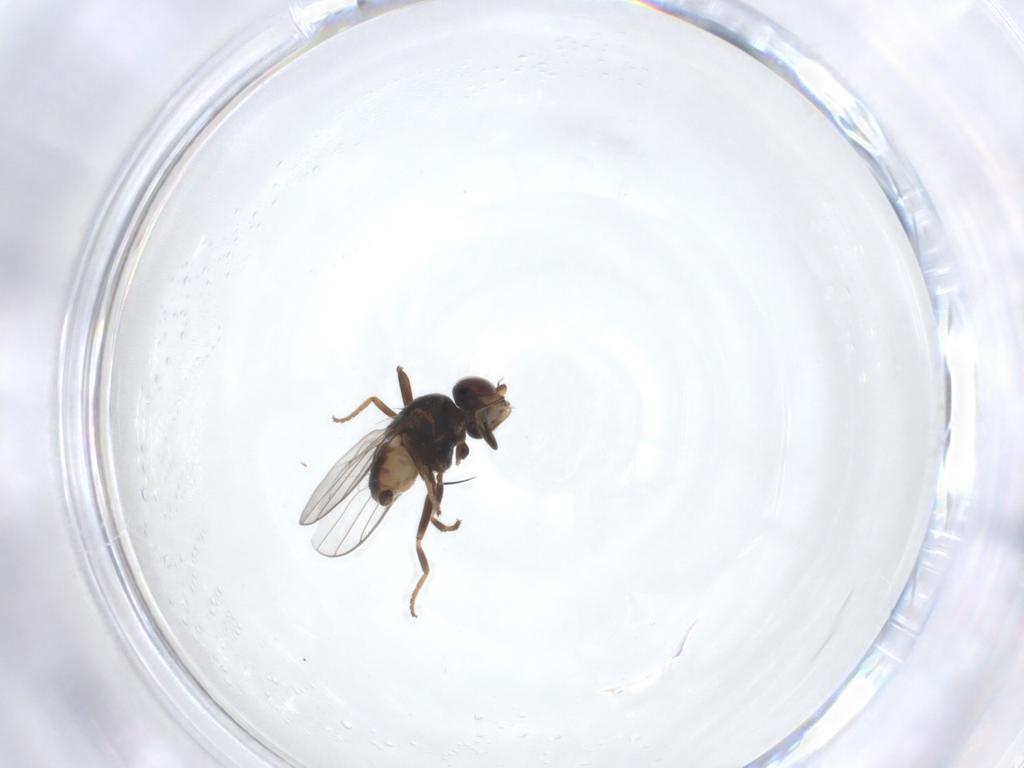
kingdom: Animalia
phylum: Arthropoda
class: Insecta
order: Diptera
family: Chloropidae
